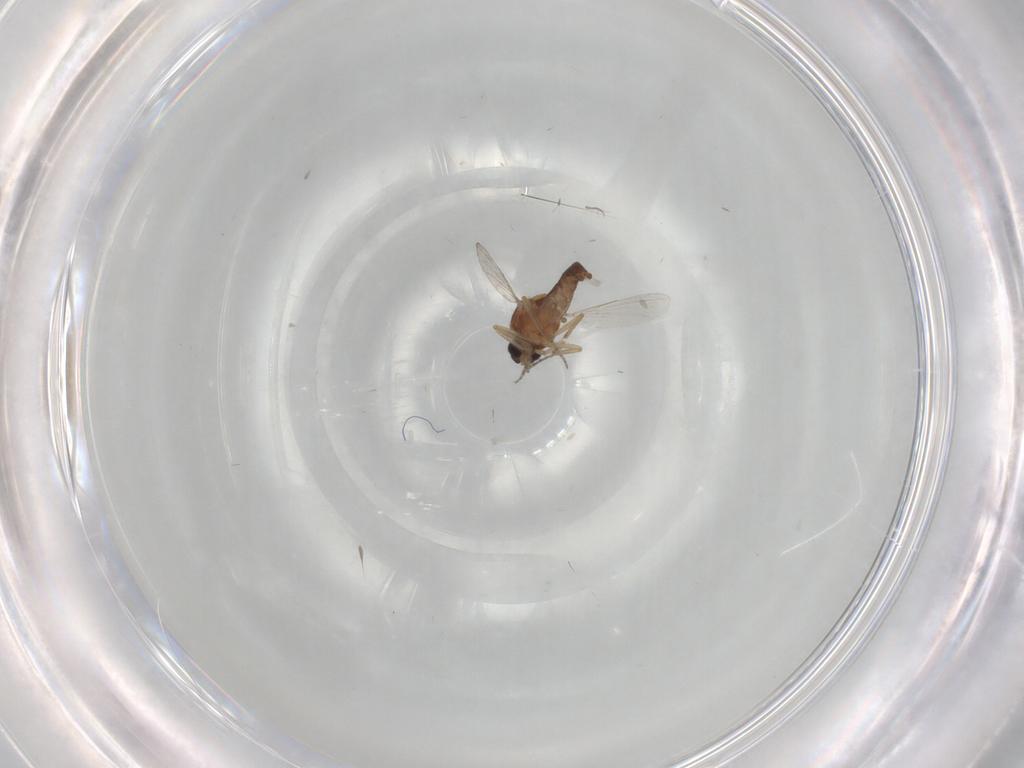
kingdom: Animalia
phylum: Arthropoda
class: Insecta
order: Diptera
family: Ceratopogonidae
